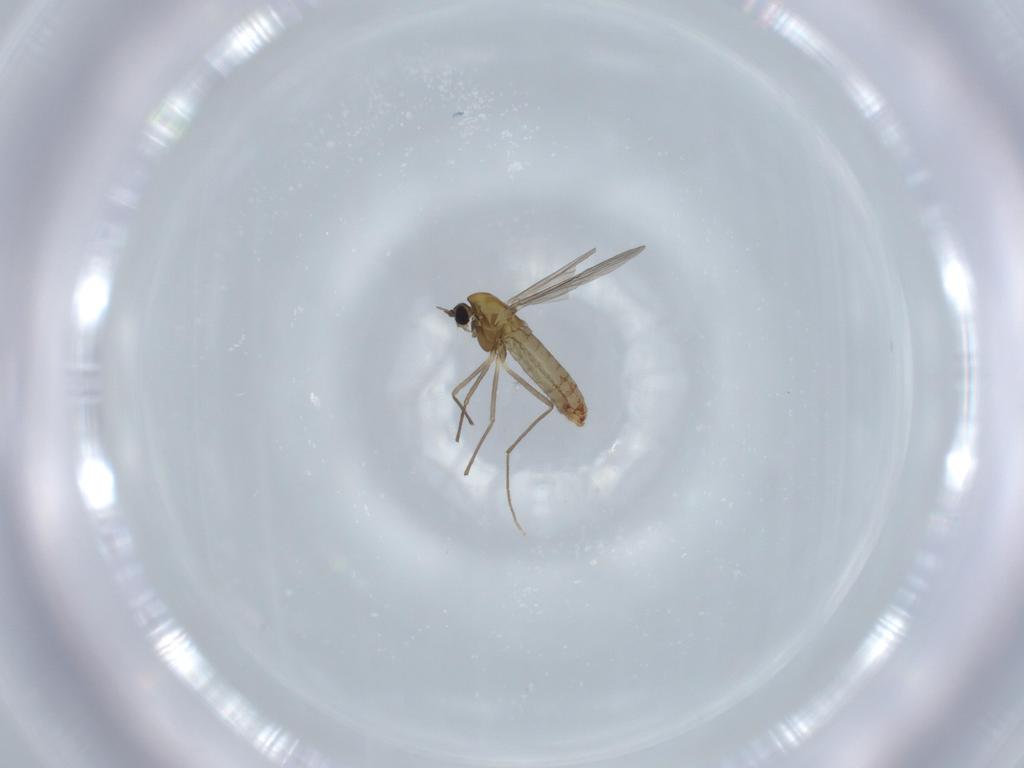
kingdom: Animalia
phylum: Arthropoda
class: Insecta
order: Diptera
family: Chironomidae
